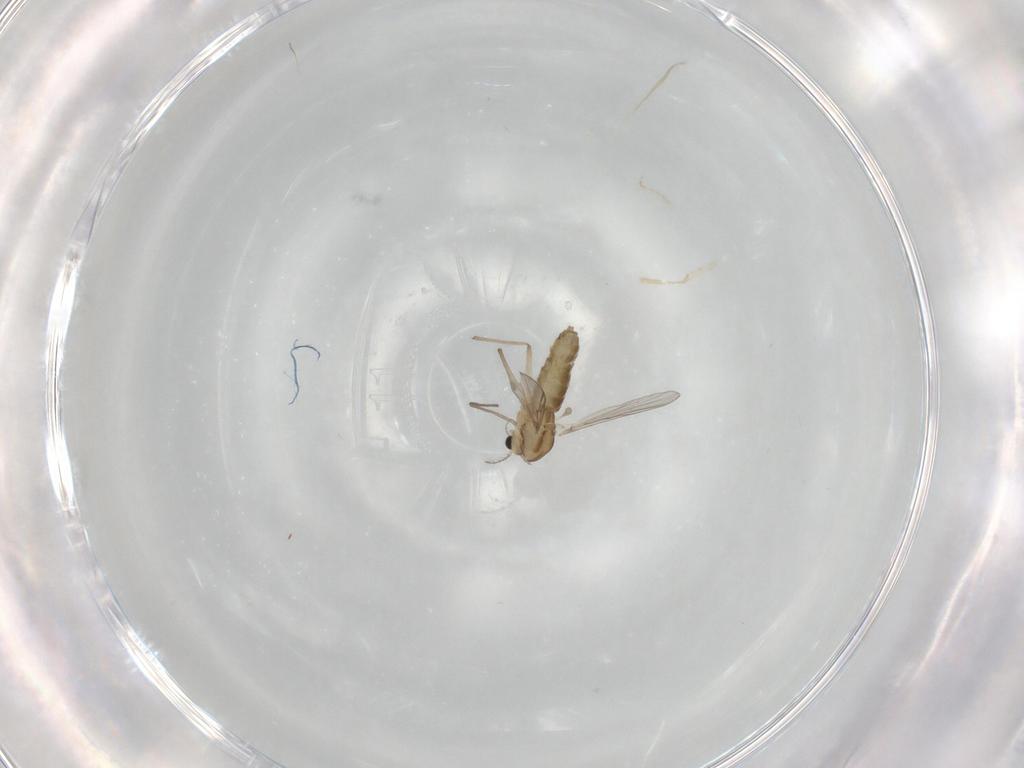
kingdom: Animalia
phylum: Arthropoda
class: Insecta
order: Diptera
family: Chironomidae
